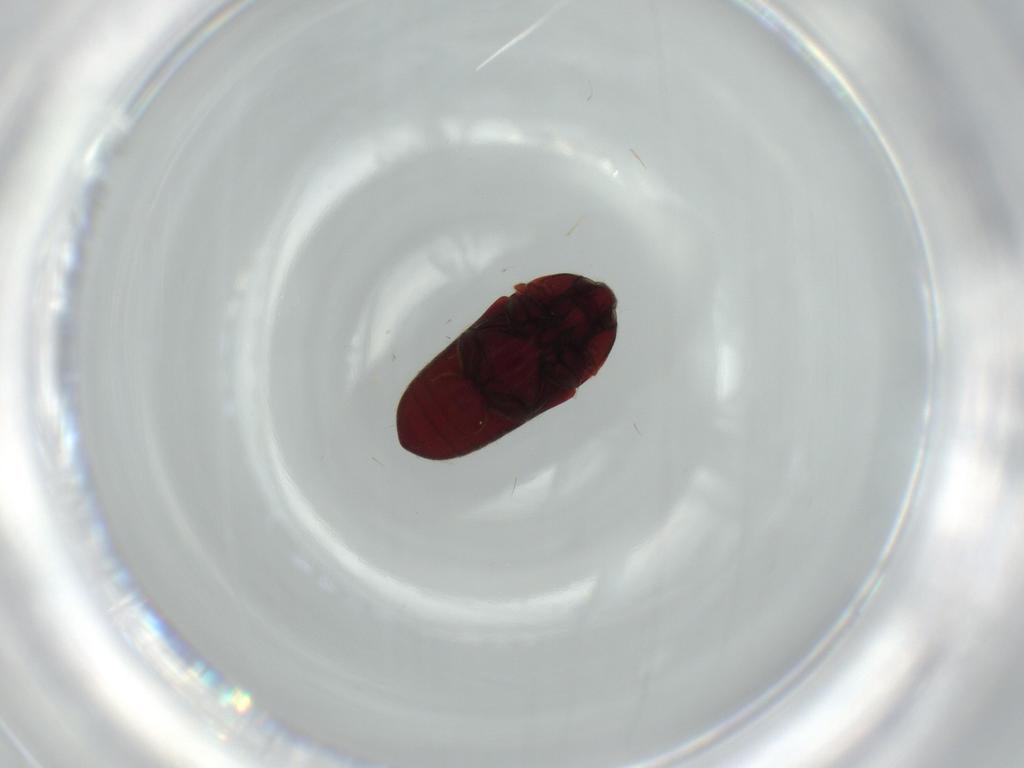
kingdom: Animalia
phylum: Arthropoda
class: Insecta
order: Coleoptera
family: Throscidae
